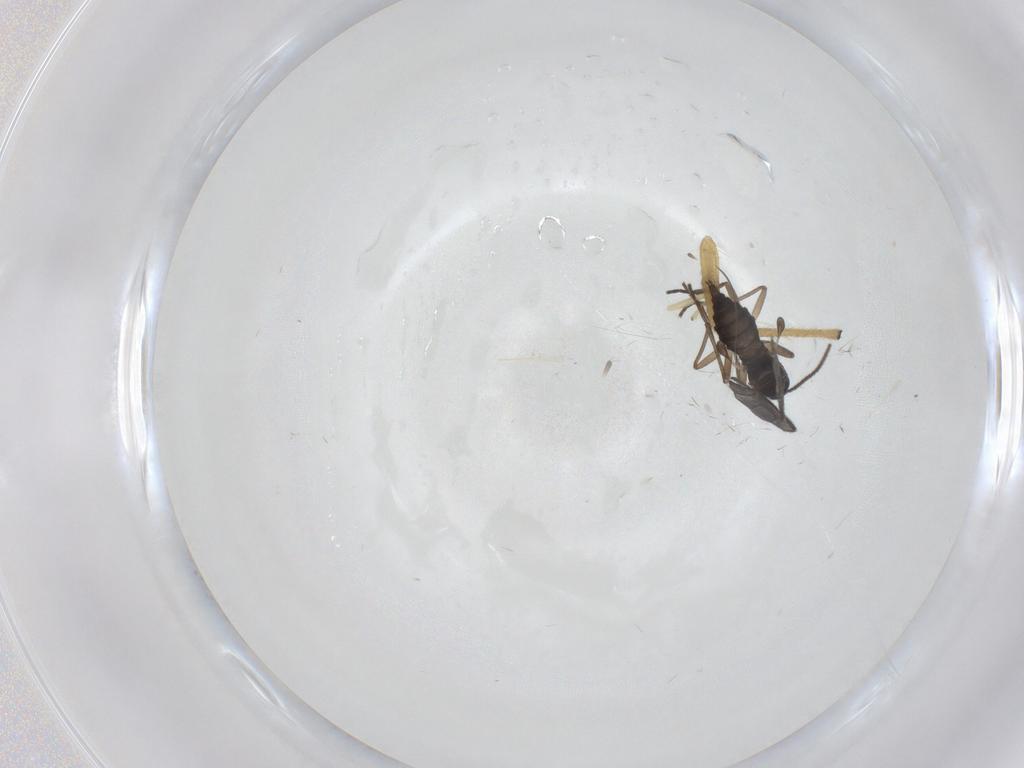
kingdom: Animalia
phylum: Arthropoda
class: Insecta
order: Diptera
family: Chironomidae
